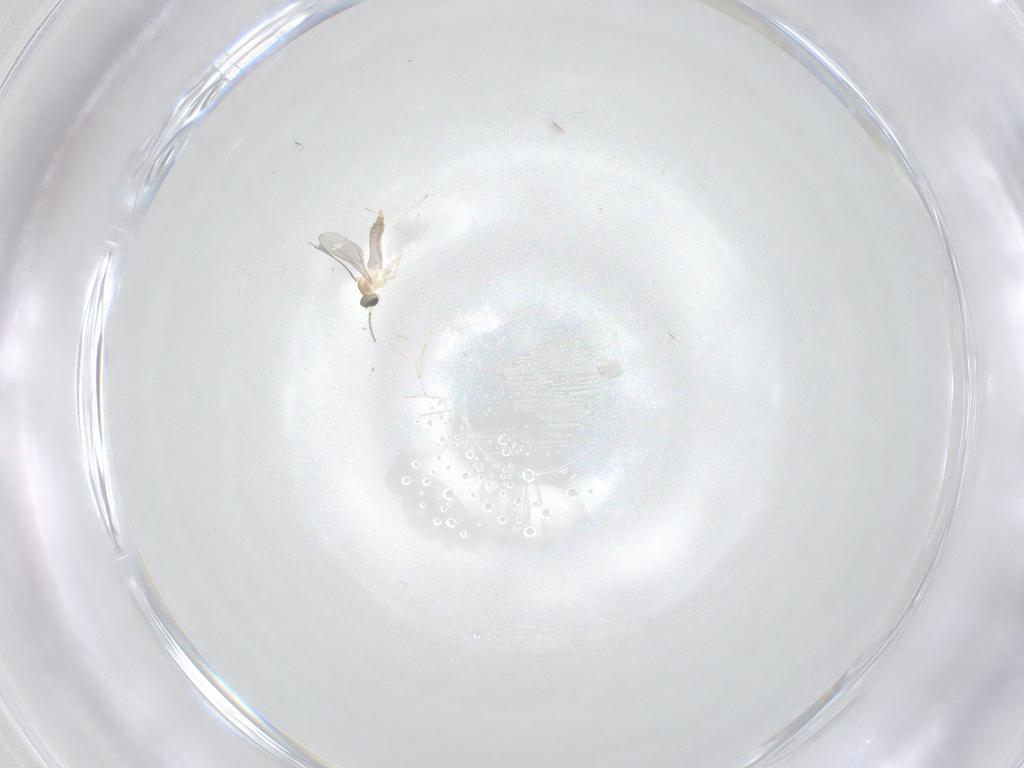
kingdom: Animalia
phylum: Arthropoda
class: Insecta
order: Diptera
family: Cecidomyiidae
